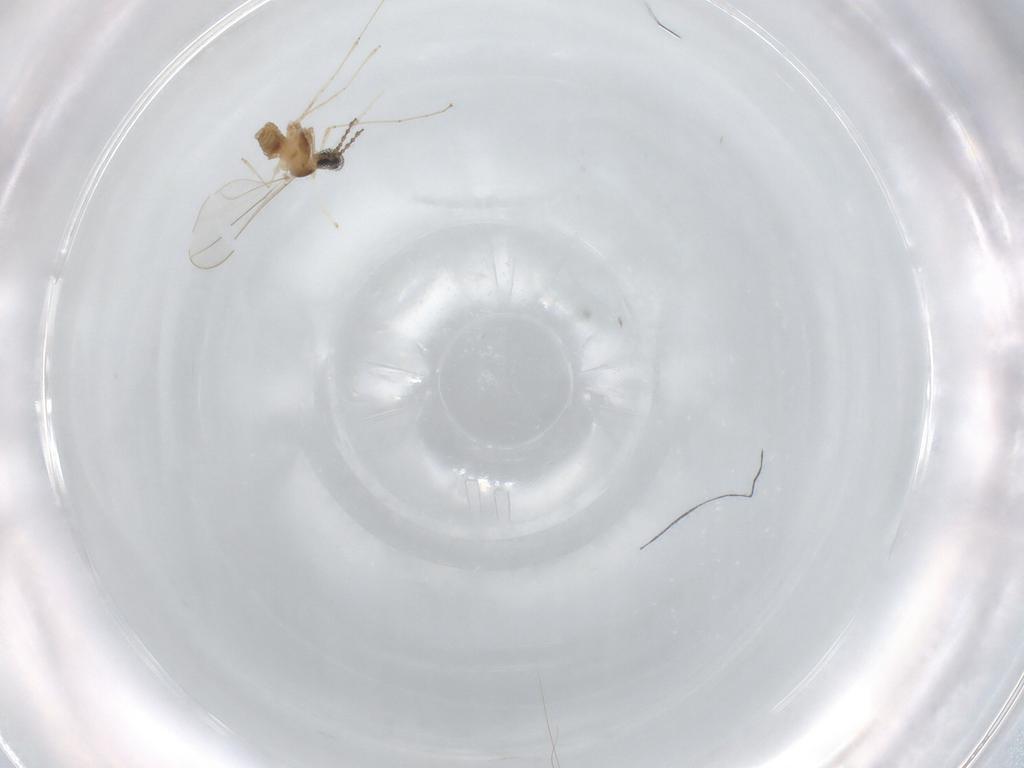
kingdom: Animalia
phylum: Arthropoda
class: Insecta
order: Diptera
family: Cecidomyiidae
